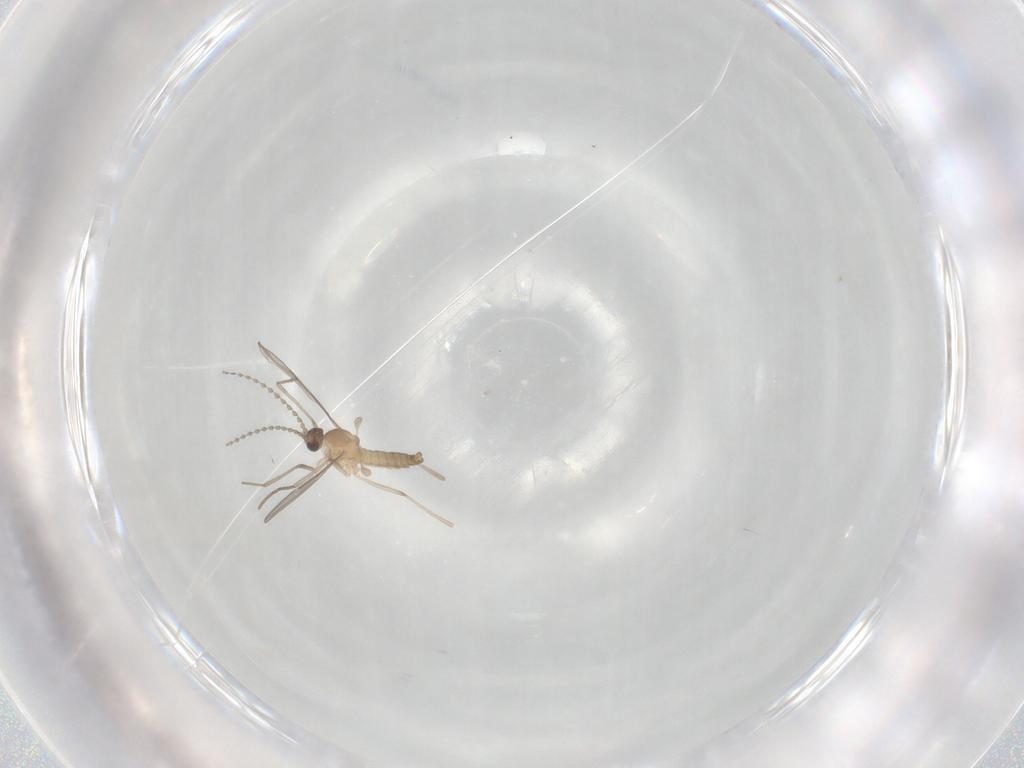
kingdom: Animalia
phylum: Arthropoda
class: Insecta
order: Diptera
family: Cecidomyiidae
